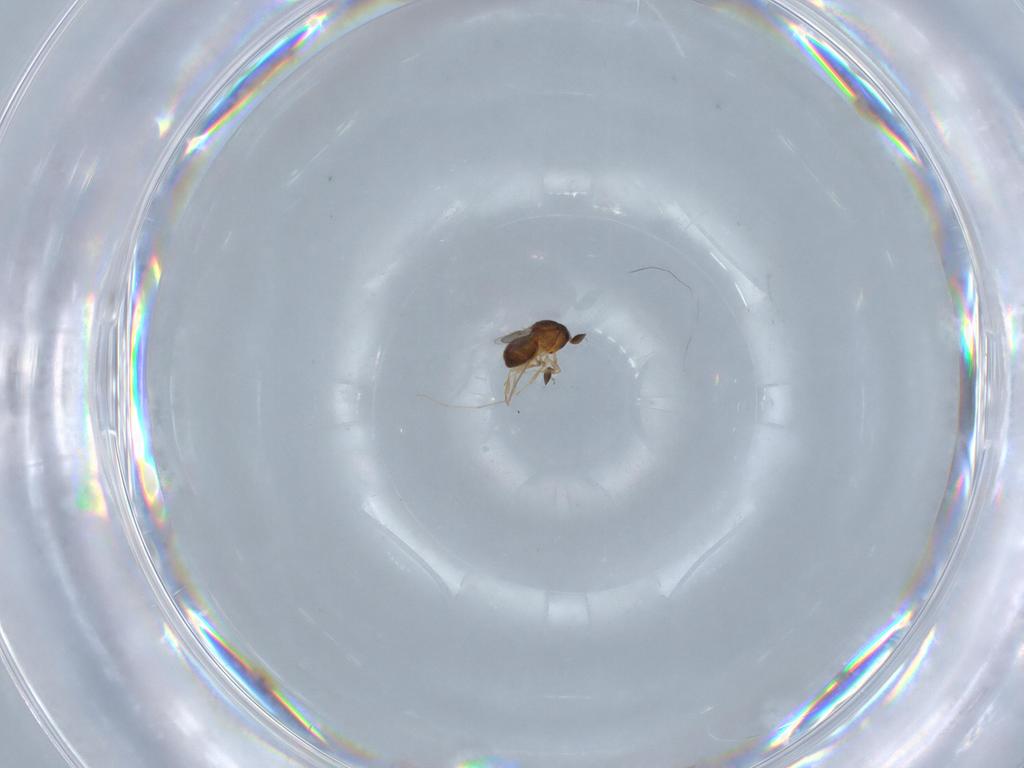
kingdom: Animalia
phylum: Arthropoda
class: Insecta
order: Hymenoptera
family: Scelionidae
